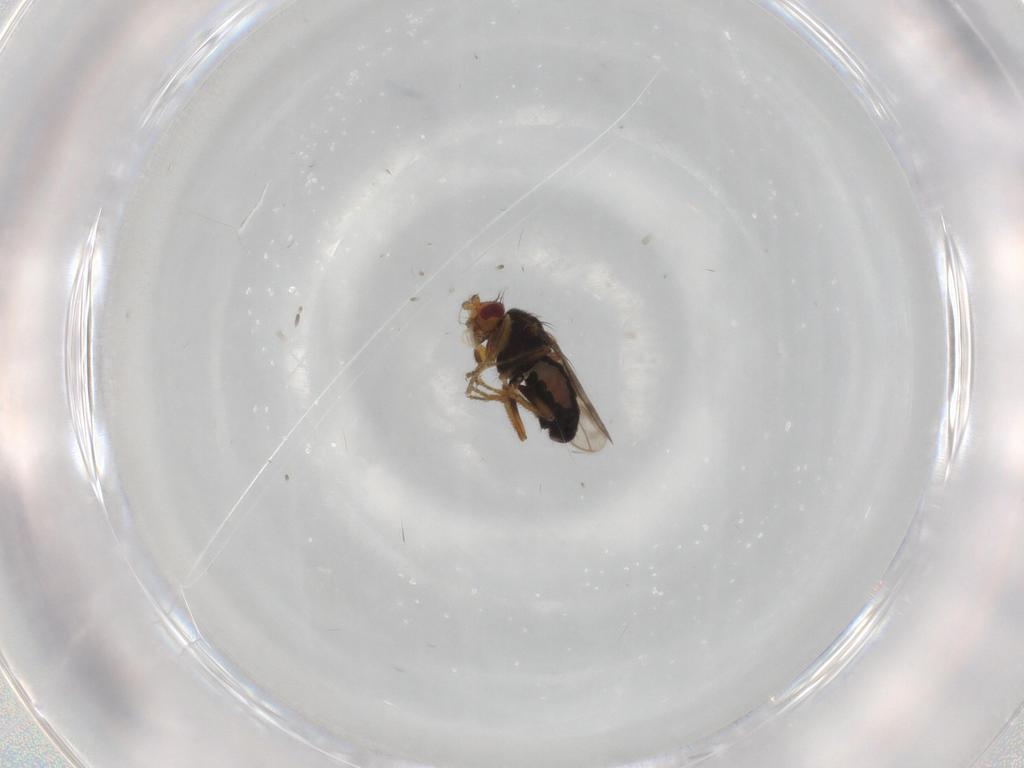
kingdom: Animalia
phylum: Arthropoda
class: Insecta
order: Diptera
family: Sphaeroceridae
